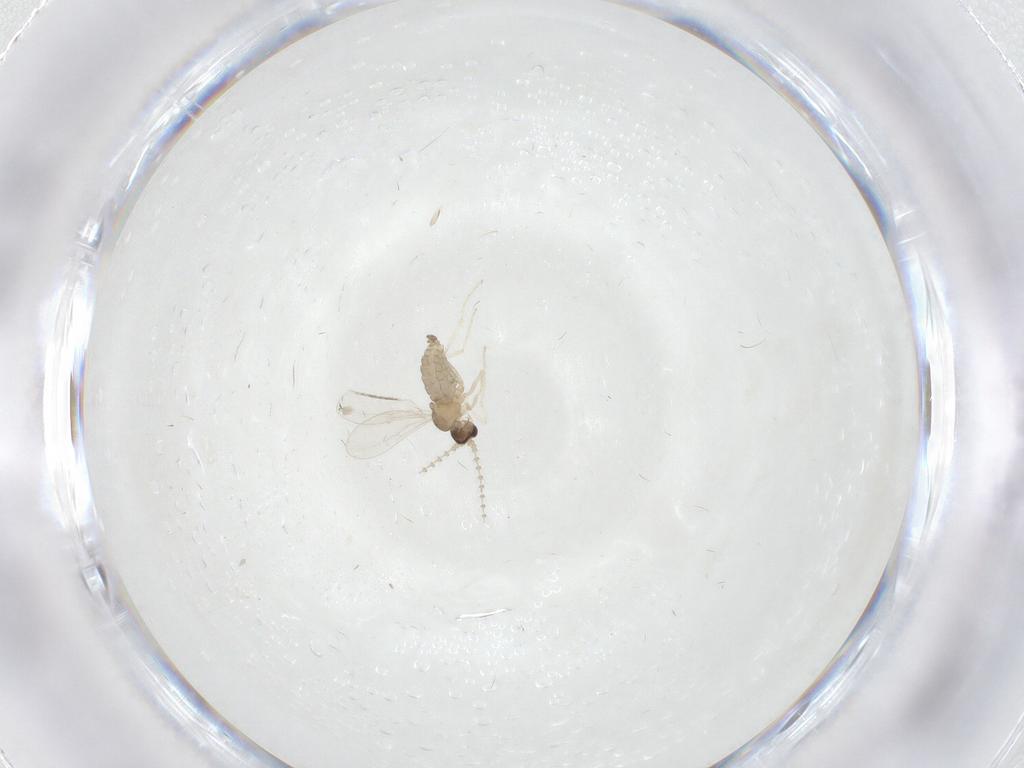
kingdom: Animalia
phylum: Arthropoda
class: Insecta
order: Diptera
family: Cecidomyiidae
